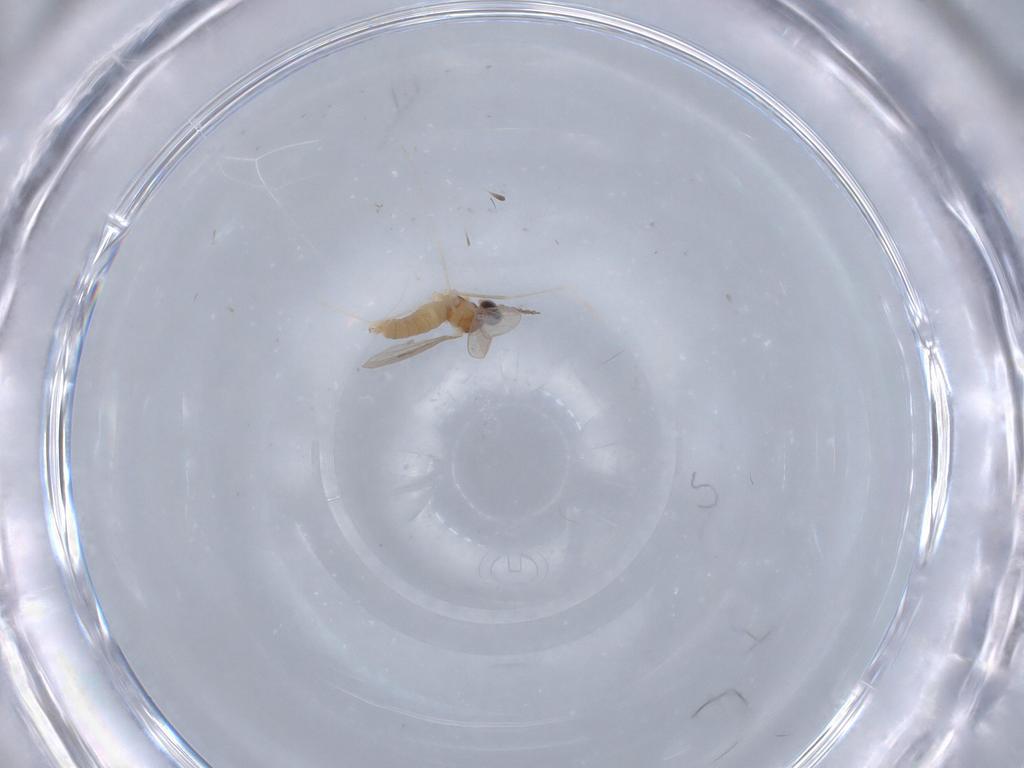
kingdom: Animalia
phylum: Arthropoda
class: Insecta
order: Diptera
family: Cecidomyiidae
